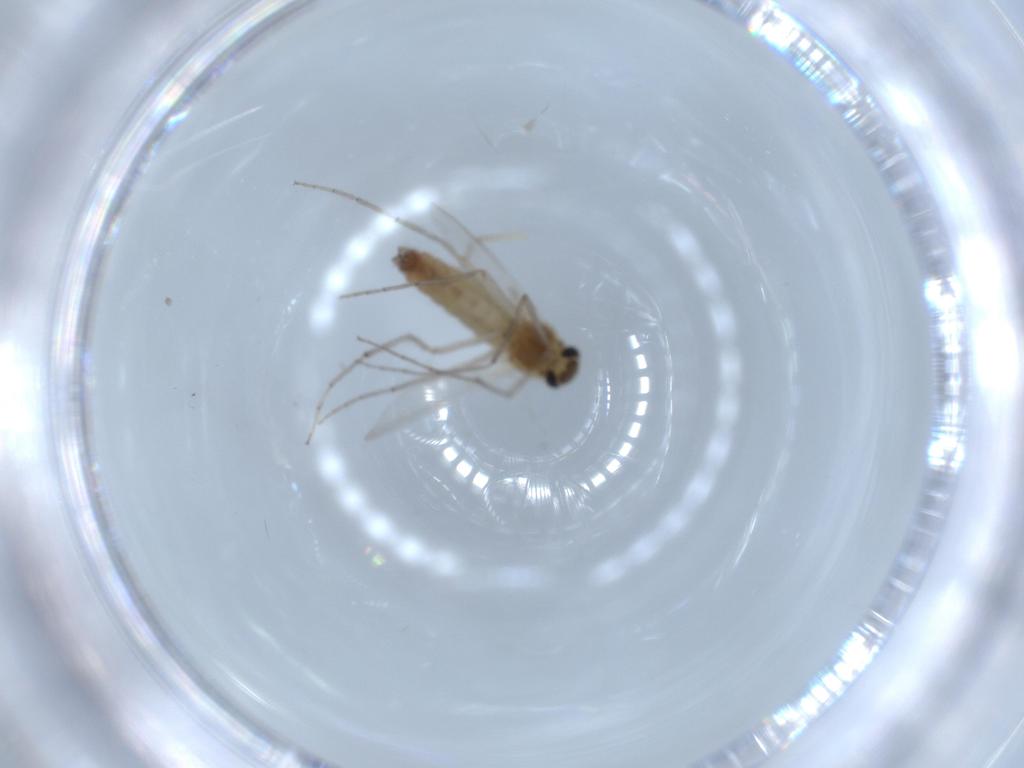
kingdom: Animalia
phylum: Arthropoda
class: Insecta
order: Diptera
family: Chironomidae
